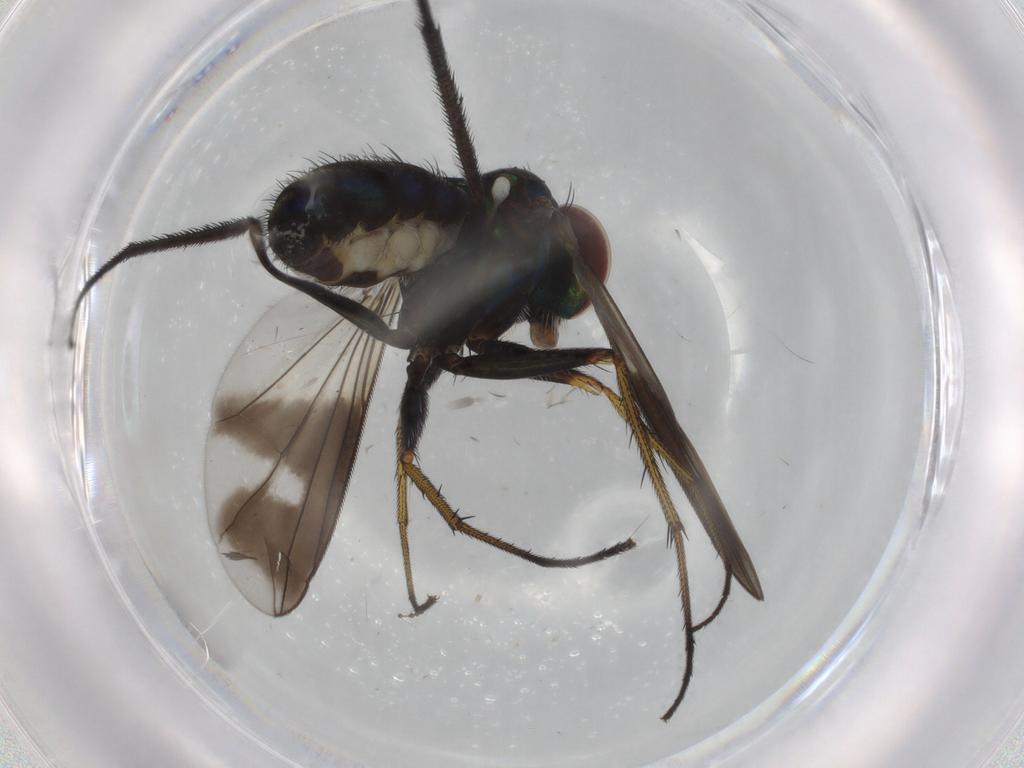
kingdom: Animalia
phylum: Arthropoda
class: Insecta
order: Diptera
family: Dolichopodidae
